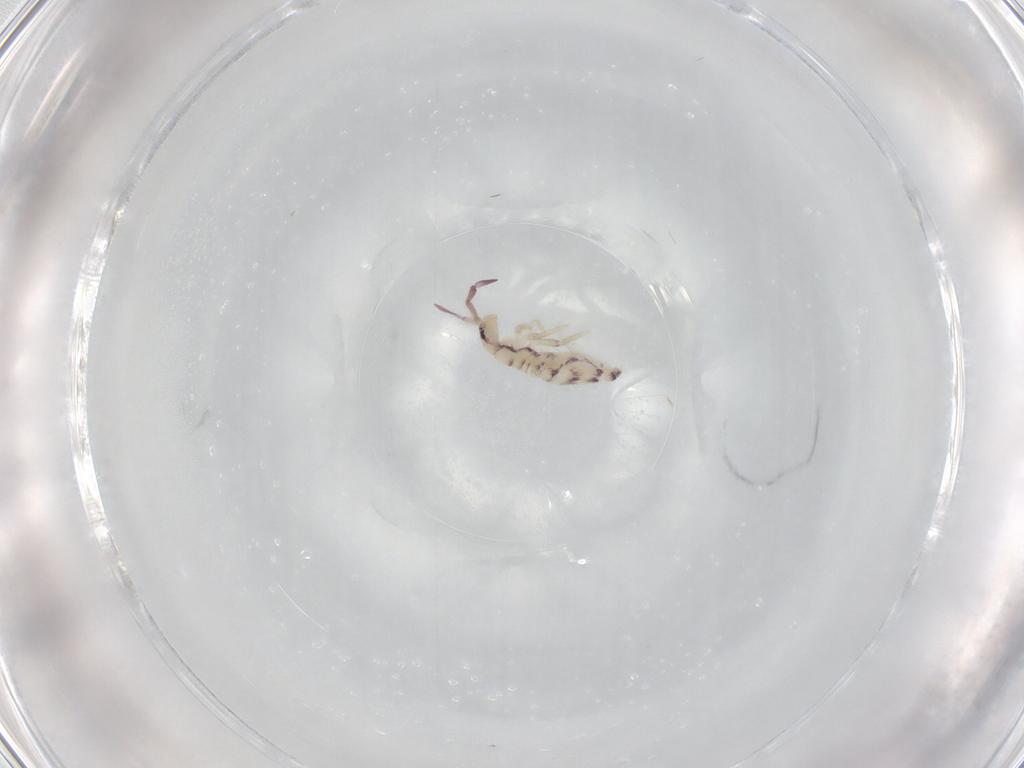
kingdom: Animalia
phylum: Arthropoda
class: Collembola
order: Entomobryomorpha
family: Entomobryidae
